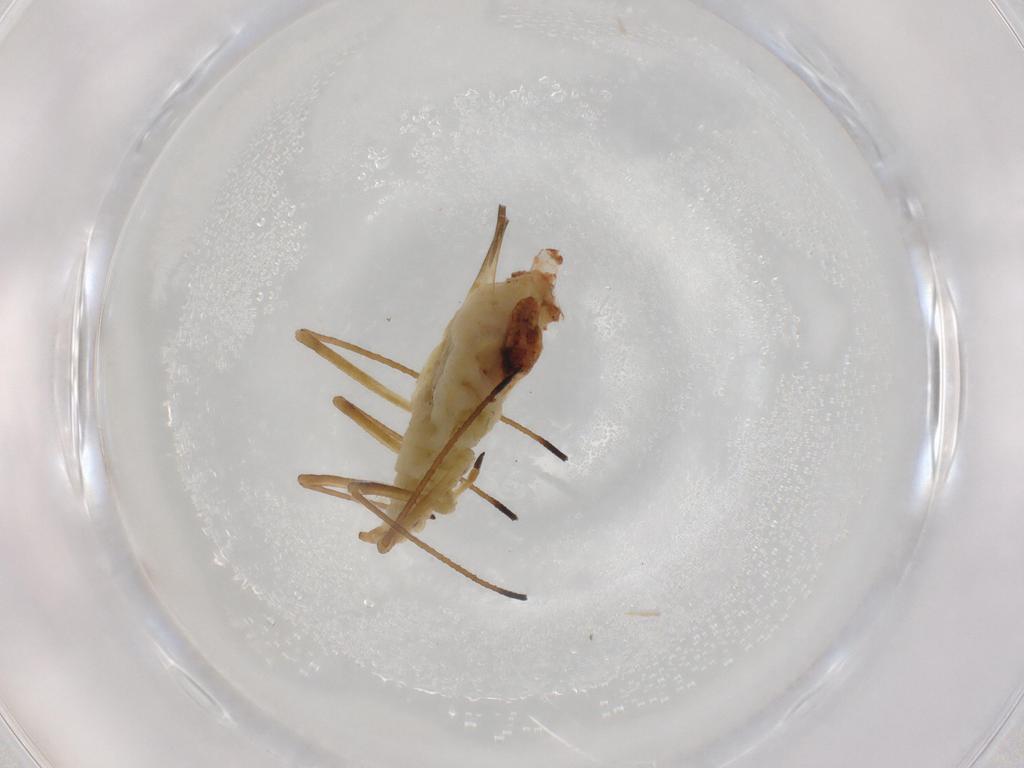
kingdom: Animalia
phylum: Arthropoda
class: Insecta
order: Hemiptera
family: Aphididae
